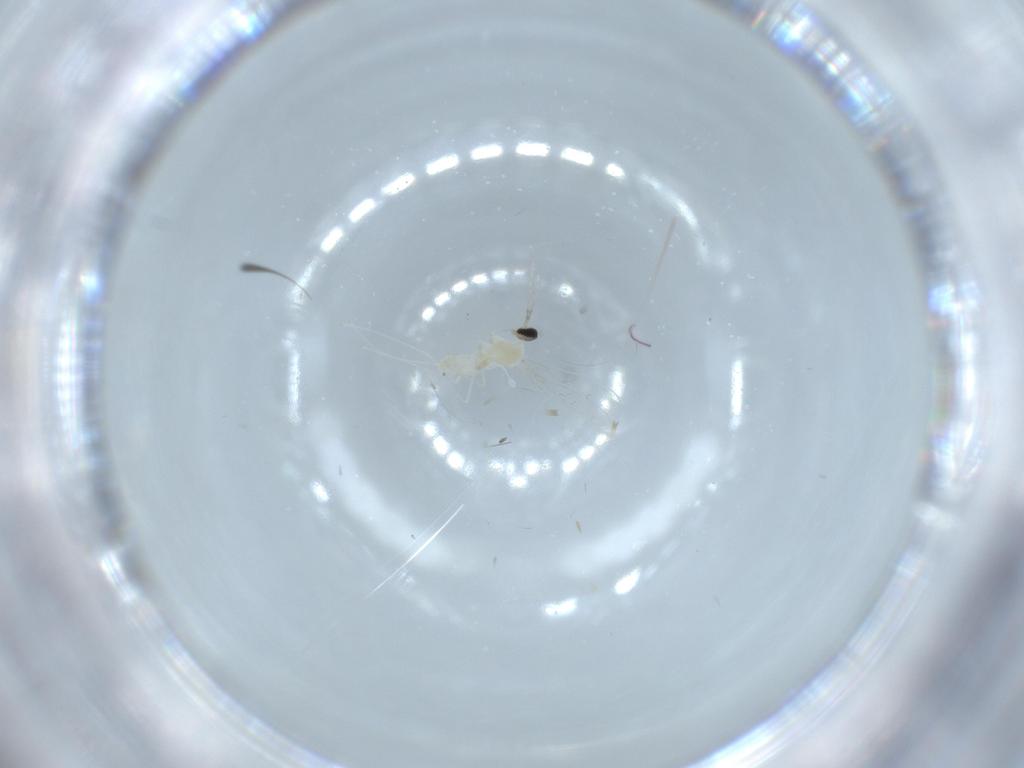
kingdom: Animalia
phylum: Arthropoda
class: Insecta
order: Diptera
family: Cecidomyiidae
